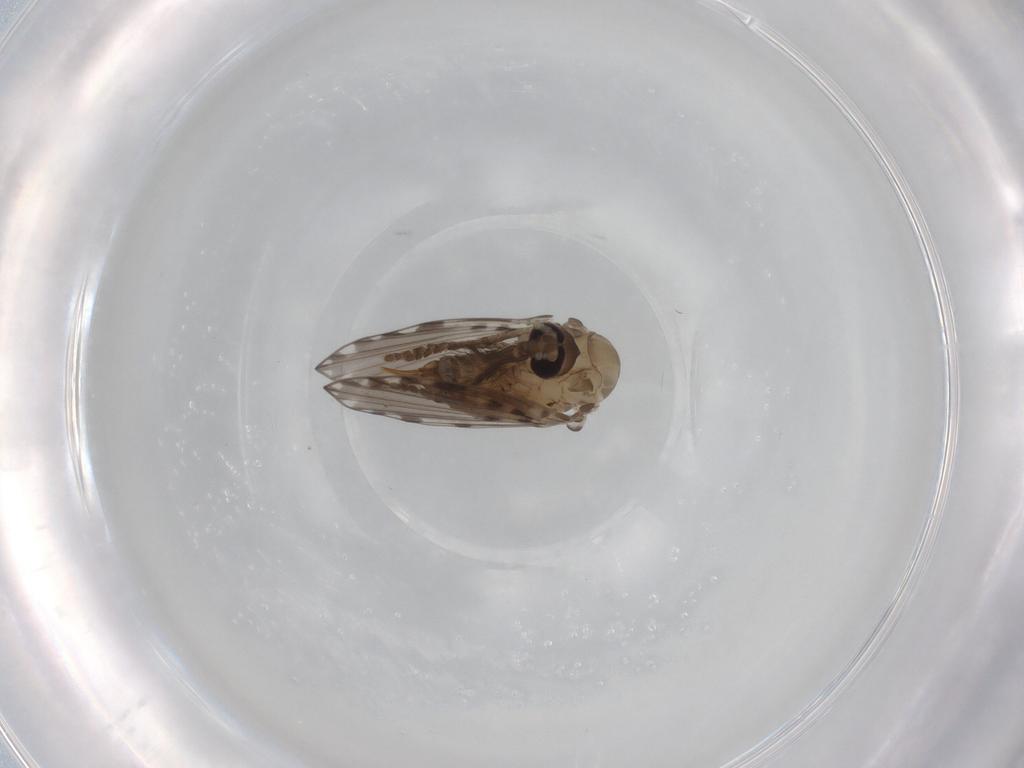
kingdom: Animalia
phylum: Arthropoda
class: Insecta
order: Diptera
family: Psychodidae
